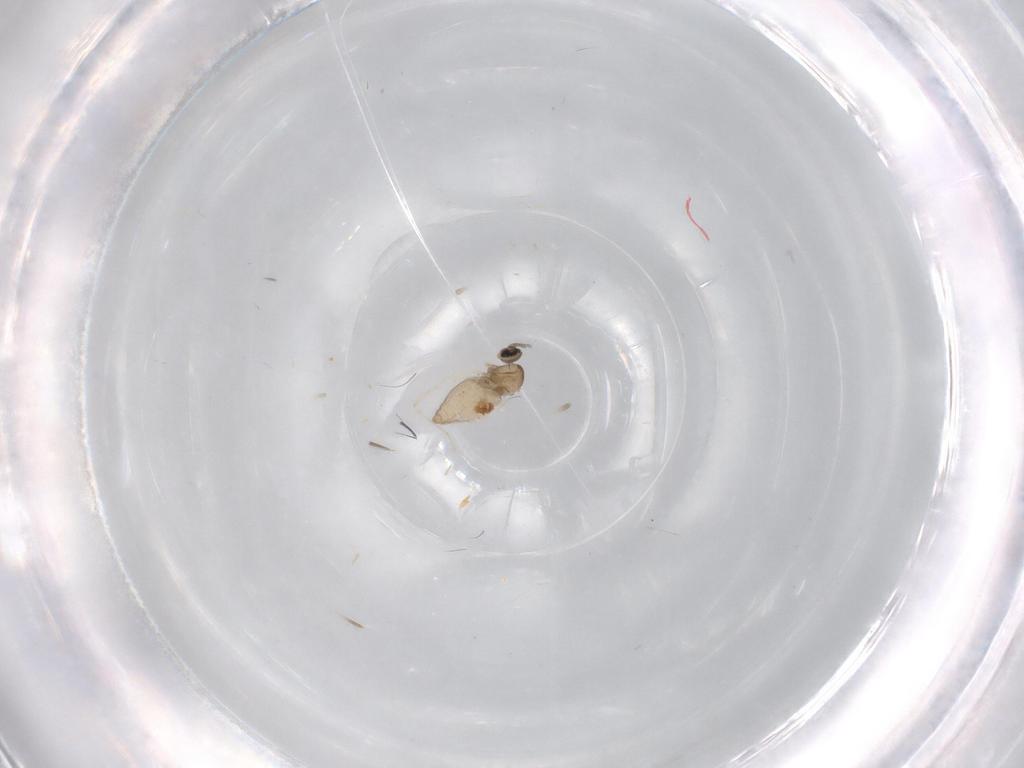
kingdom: Animalia
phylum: Arthropoda
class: Insecta
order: Diptera
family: Cecidomyiidae
